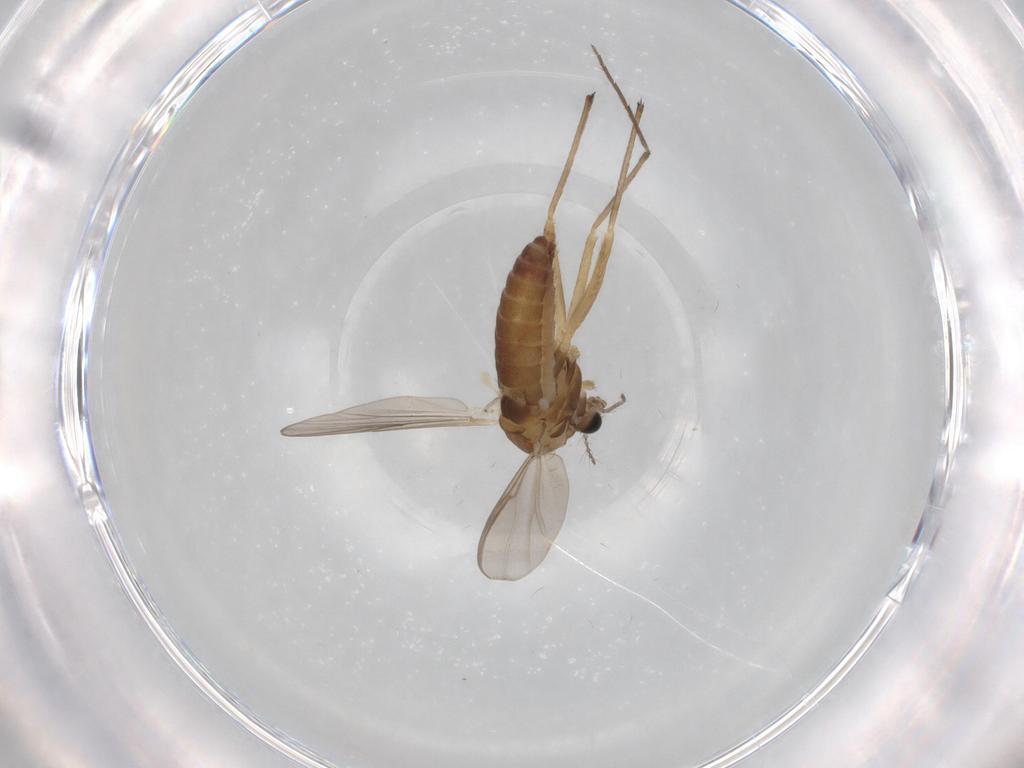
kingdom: Animalia
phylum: Arthropoda
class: Insecta
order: Diptera
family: Chironomidae
